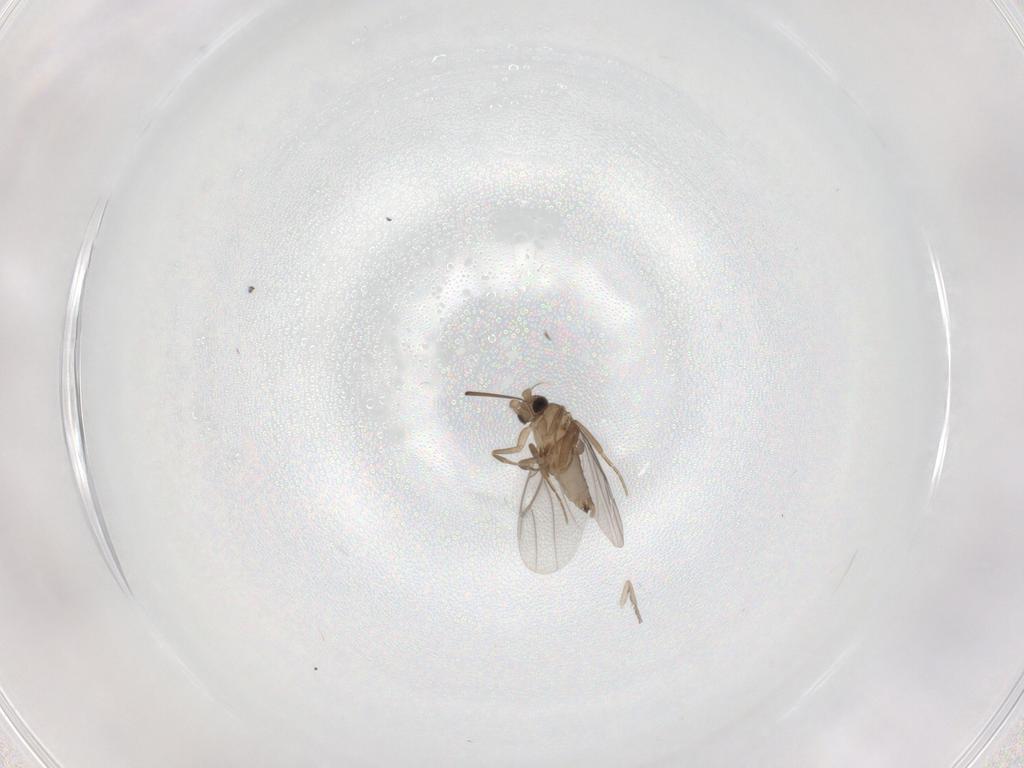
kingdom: Animalia
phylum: Arthropoda
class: Insecta
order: Diptera
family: Psychodidae
